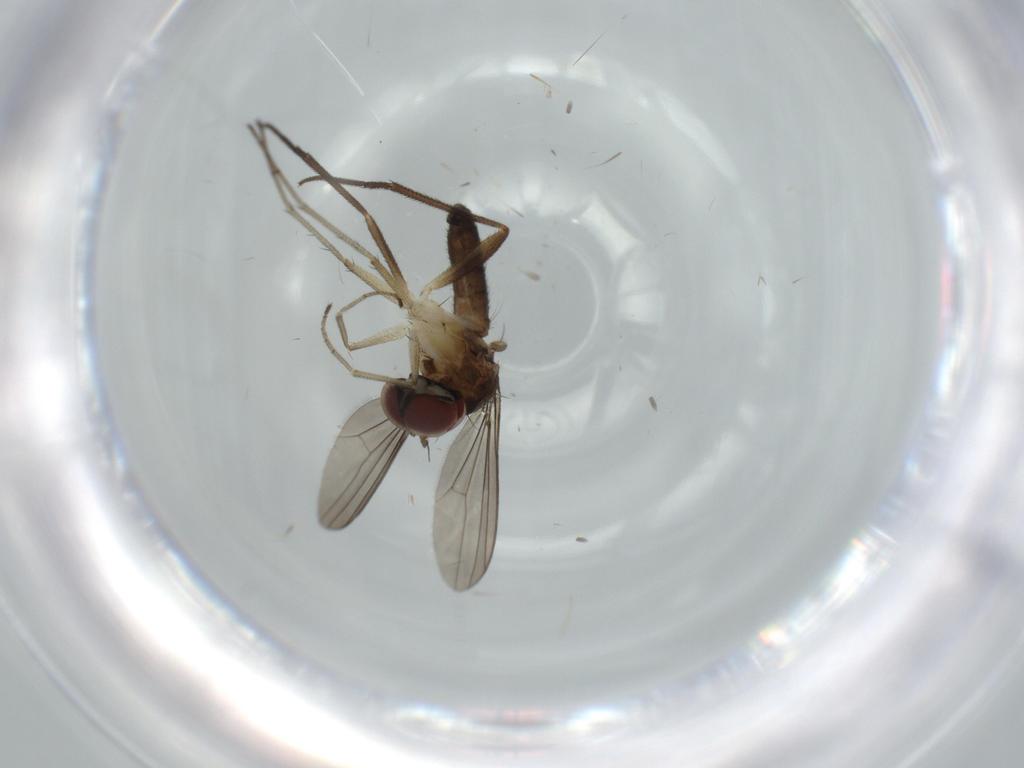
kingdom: Animalia
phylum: Arthropoda
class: Insecta
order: Diptera
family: Dolichopodidae
